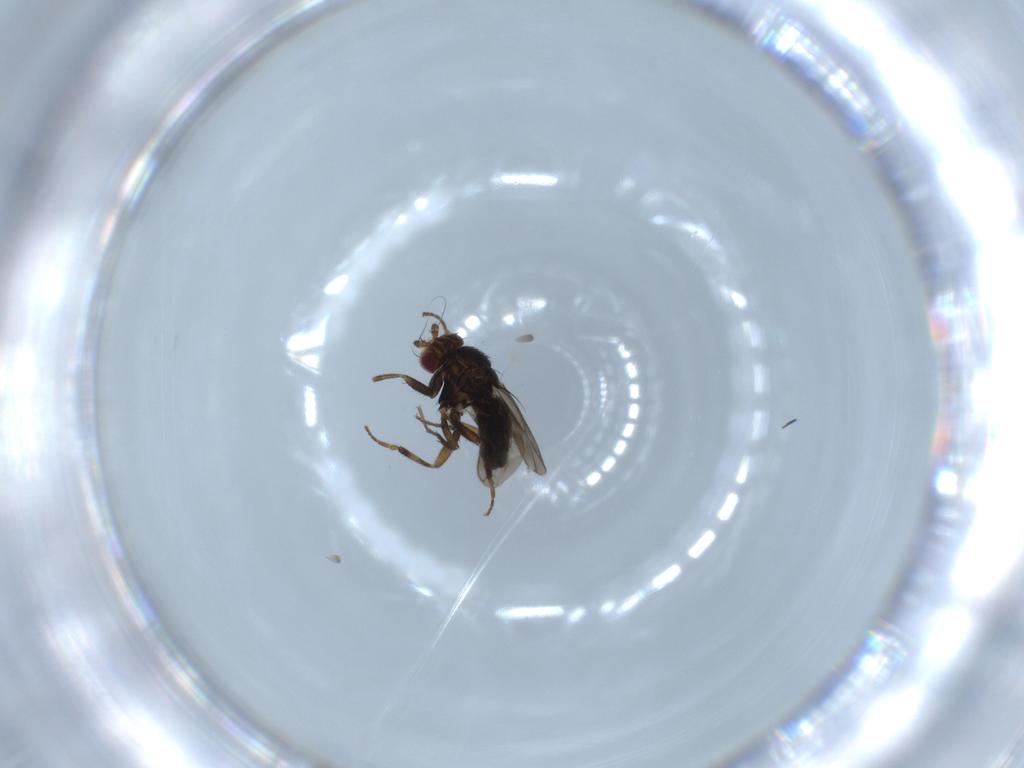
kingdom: Animalia
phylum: Arthropoda
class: Insecta
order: Diptera
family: Sphaeroceridae
